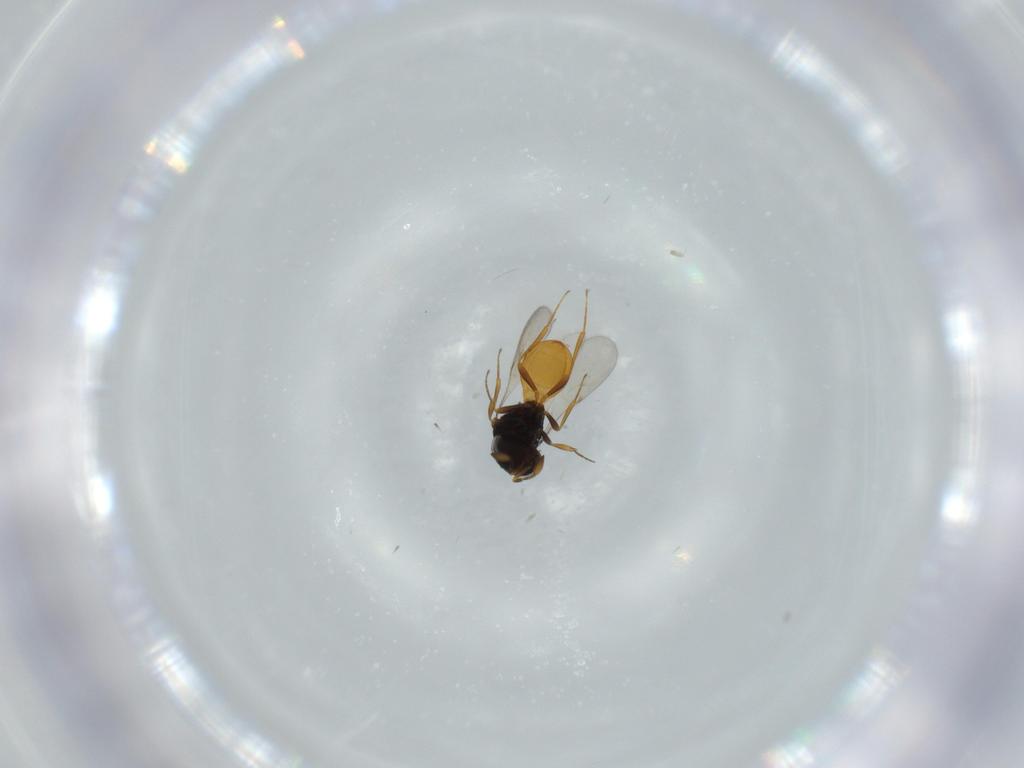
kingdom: Animalia
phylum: Arthropoda
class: Insecta
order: Hymenoptera
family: Scelionidae
